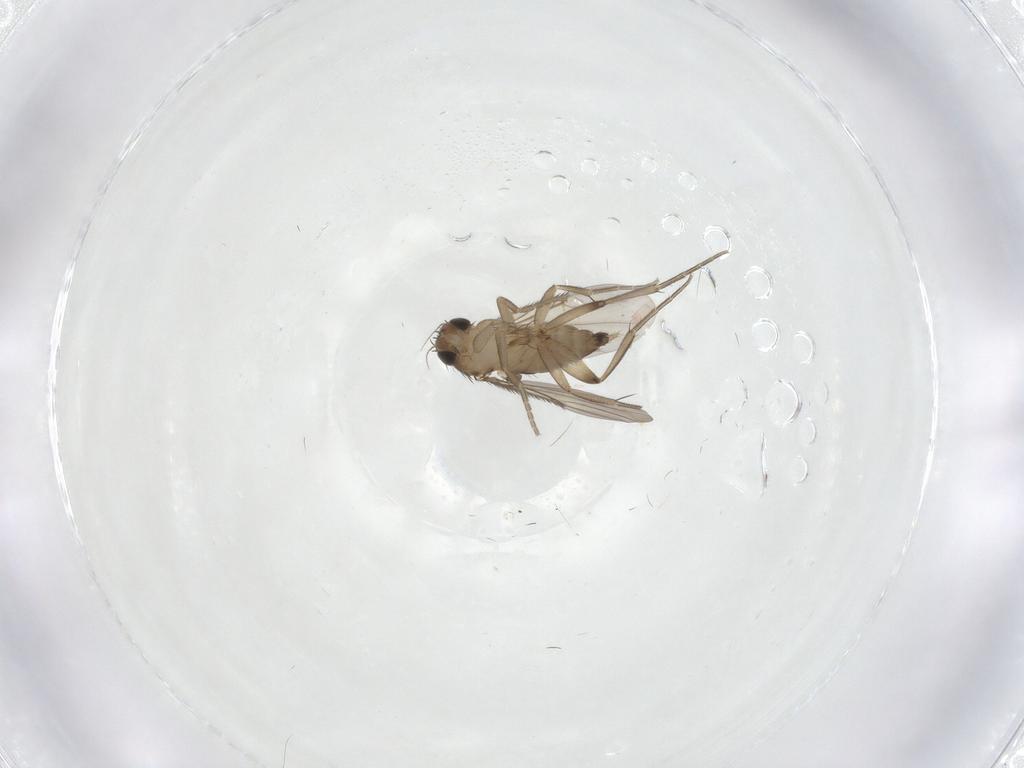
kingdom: Animalia
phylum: Arthropoda
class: Insecta
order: Diptera
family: Phoridae
